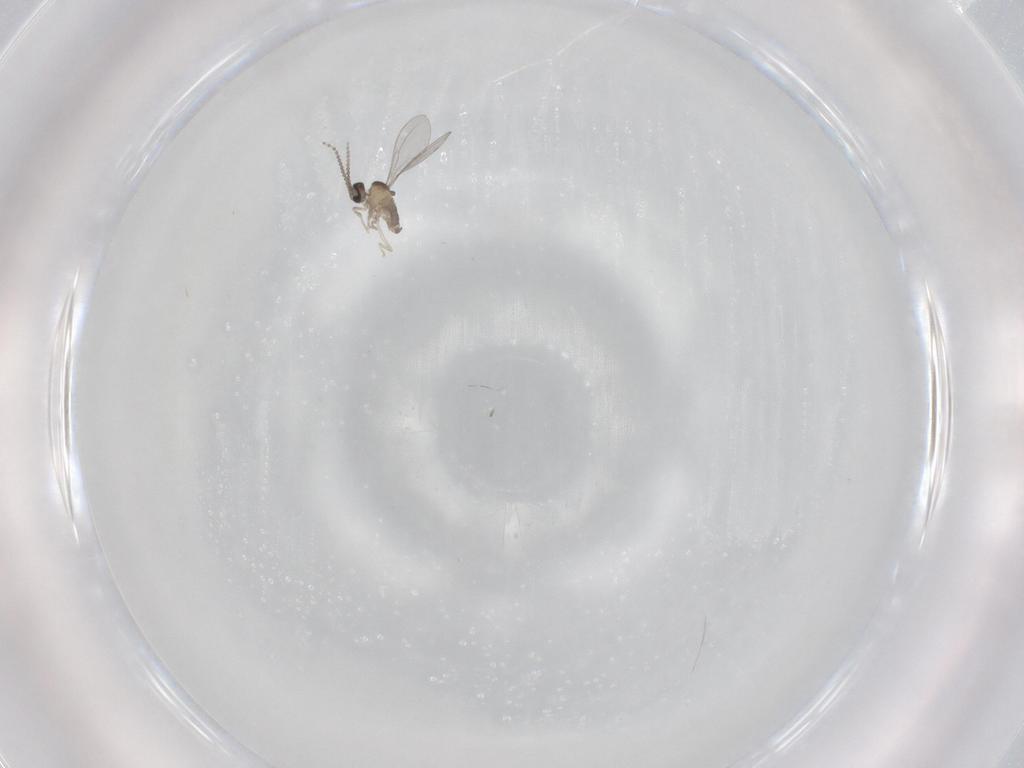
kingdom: Animalia
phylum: Arthropoda
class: Insecta
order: Diptera
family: Cecidomyiidae
